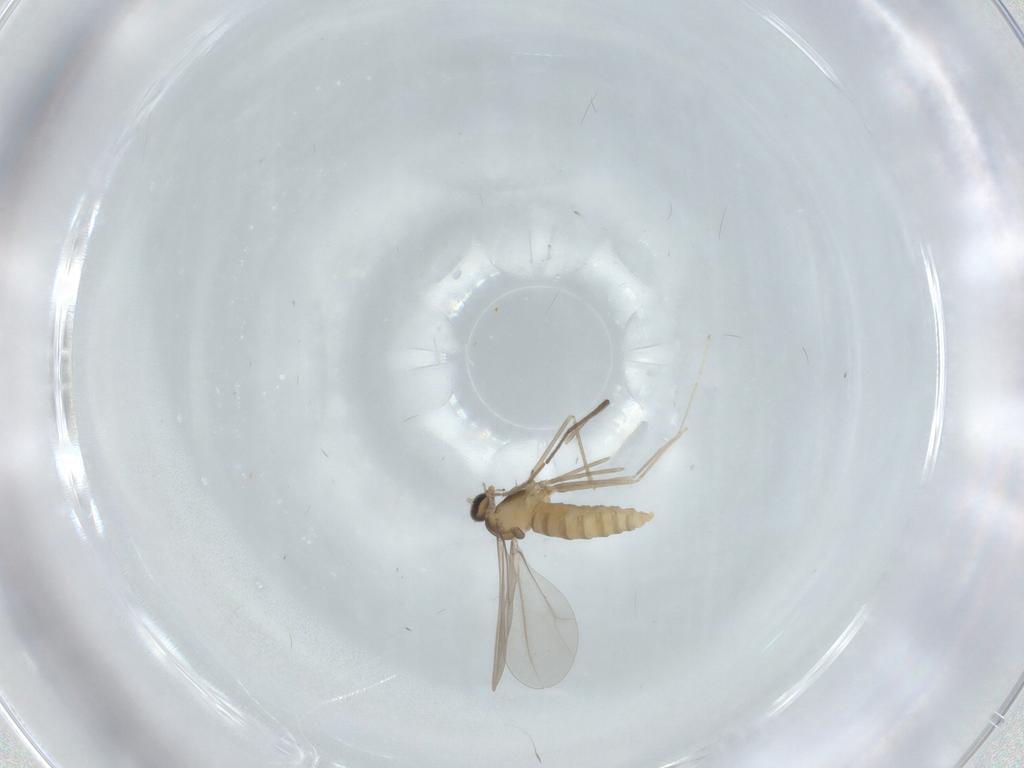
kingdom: Animalia
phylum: Arthropoda
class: Insecta
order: Diptera
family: Cecidomyiidae
